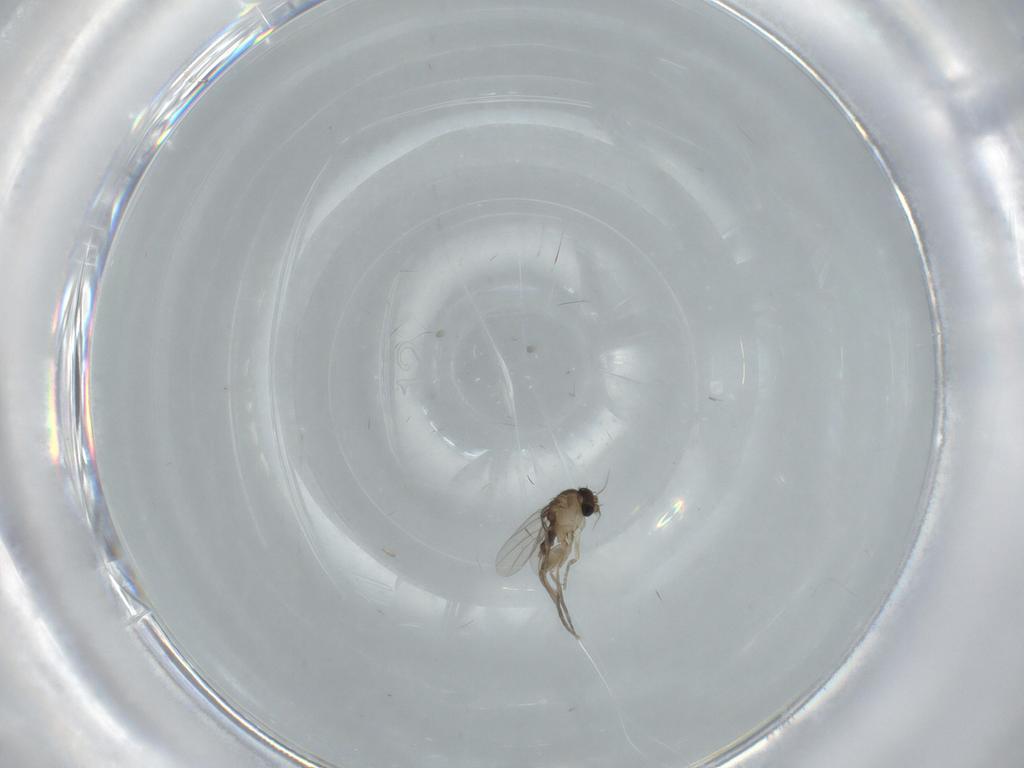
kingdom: Animalia
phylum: Arthropoda
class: Insecta
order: Diptera
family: Phoridae
